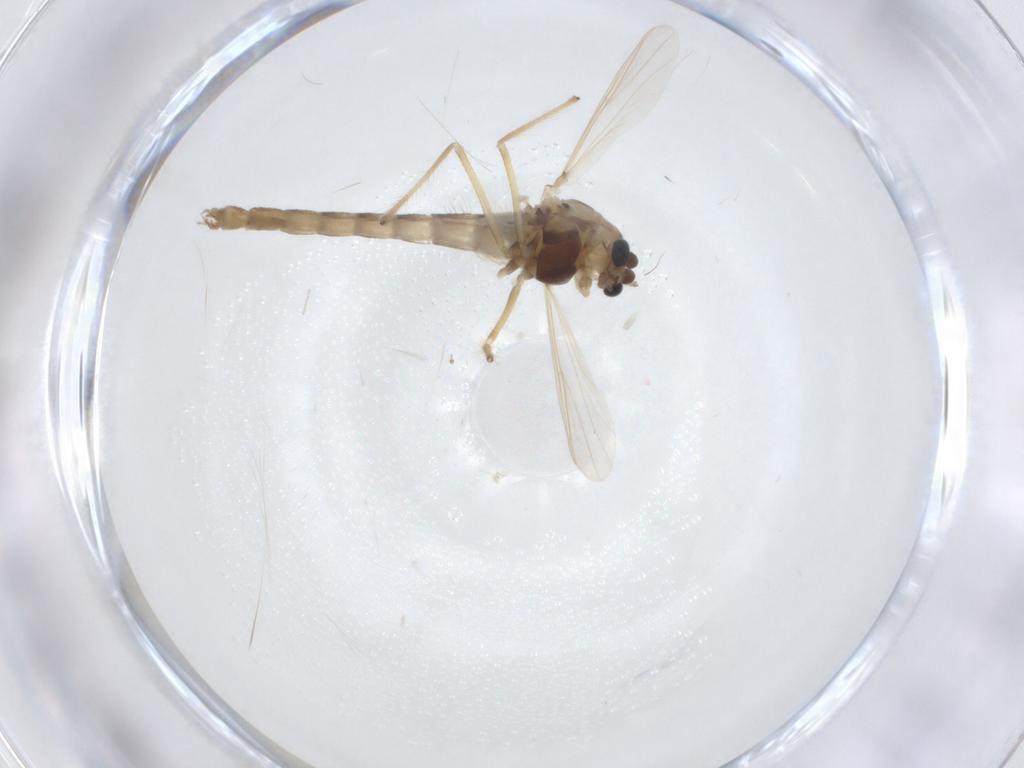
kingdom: Animalia
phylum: Arthropoda
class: Insecta
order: Diptera
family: Chironomidae
